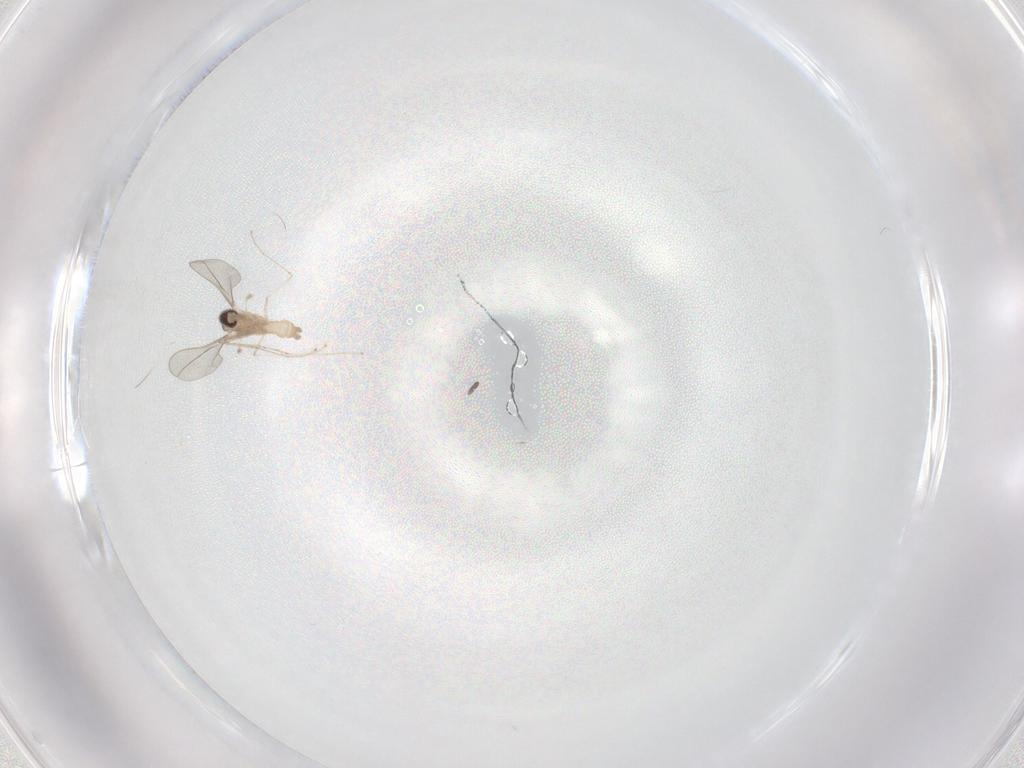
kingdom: Animalia
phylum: Arthropoda
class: Insecta
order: Diptera
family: Cecidomyiidae
